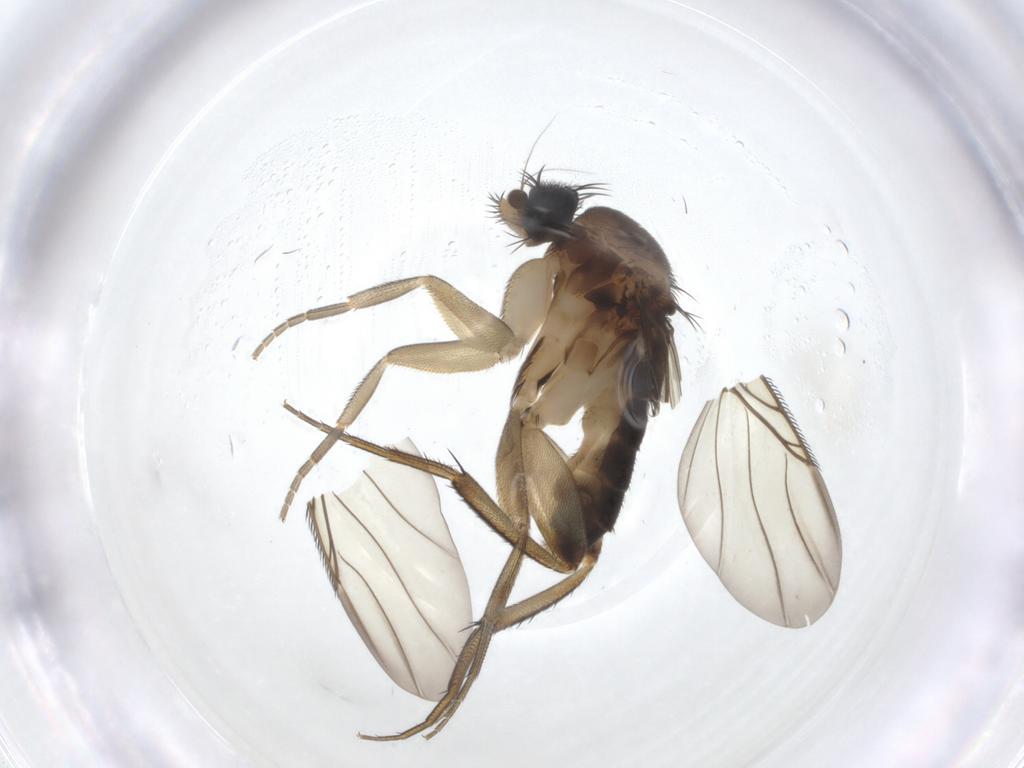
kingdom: Animalia
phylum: Arthropoda
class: Insecta
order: Diptera
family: Phoridae
